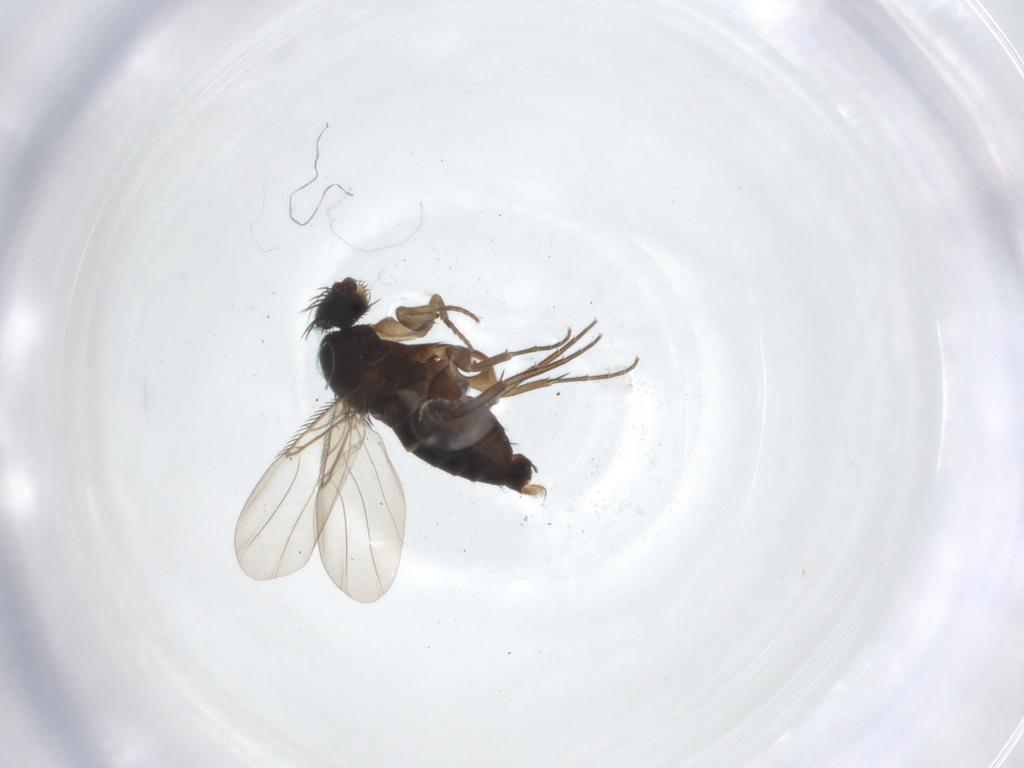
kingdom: Animalia
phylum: Arthropoda
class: Insecta
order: Diptera
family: Phoridae
